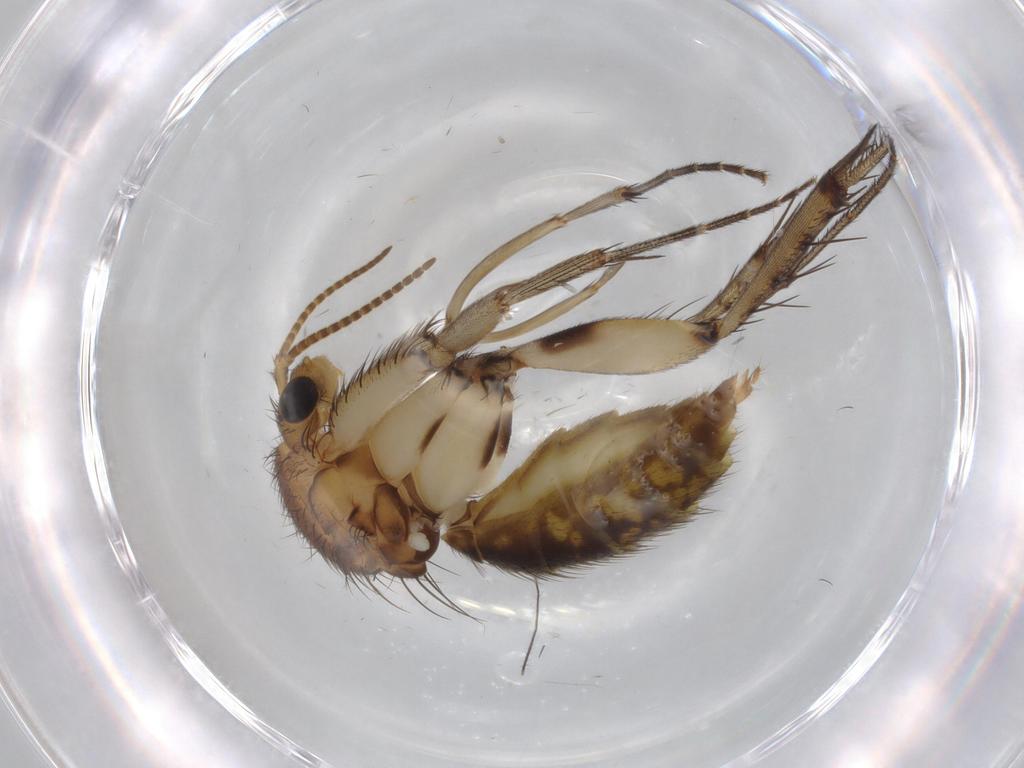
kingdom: Animalia
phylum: Arthropoda
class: Insecta
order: Diptera
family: Sciaridae
